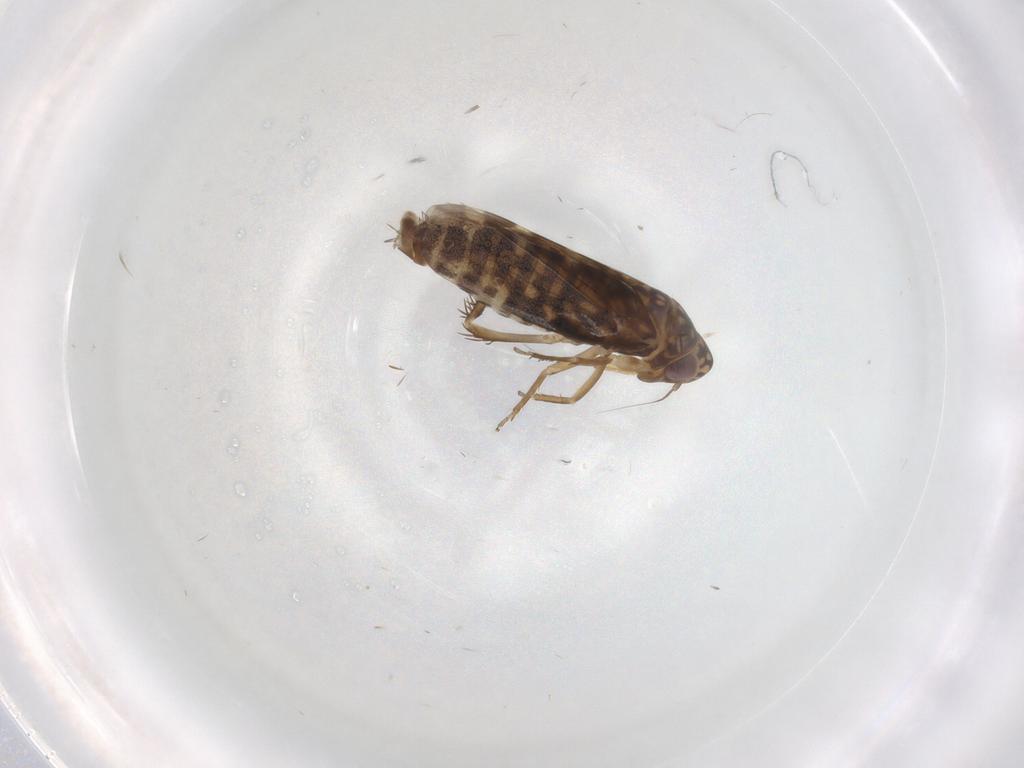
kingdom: Animalia
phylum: Arthropoda
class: Insecta
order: Hemiptera
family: Cicadellidae
